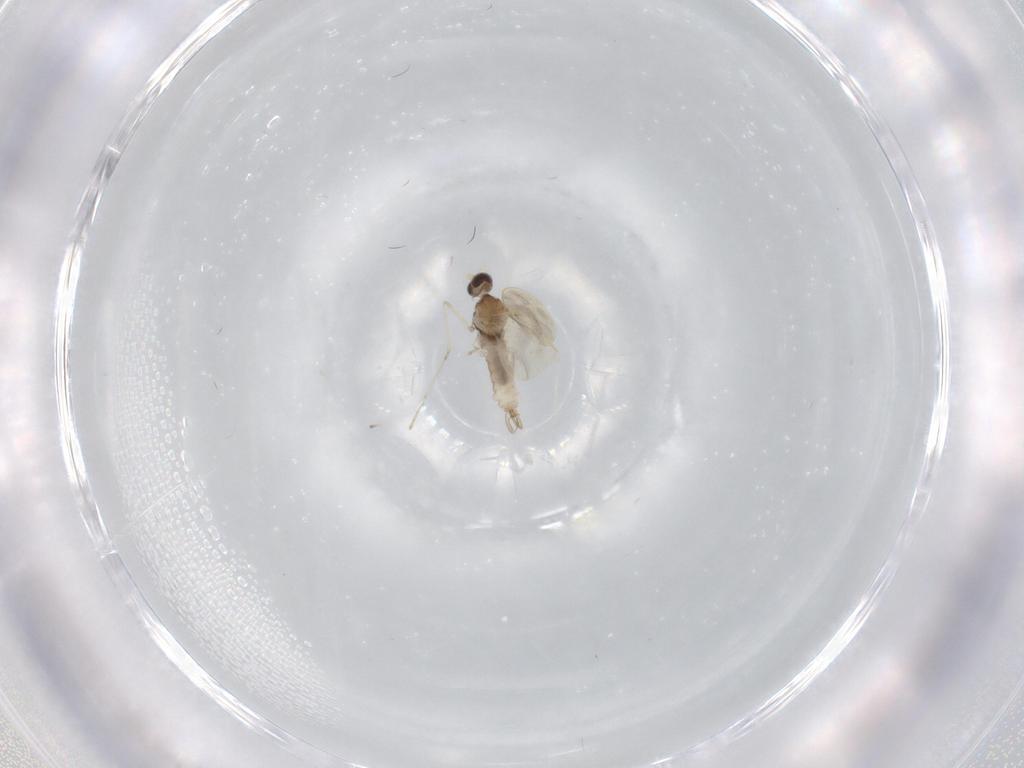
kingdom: Animalia
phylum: Arthropoda
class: Insecta
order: Diptera
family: Cecidomyiidae
